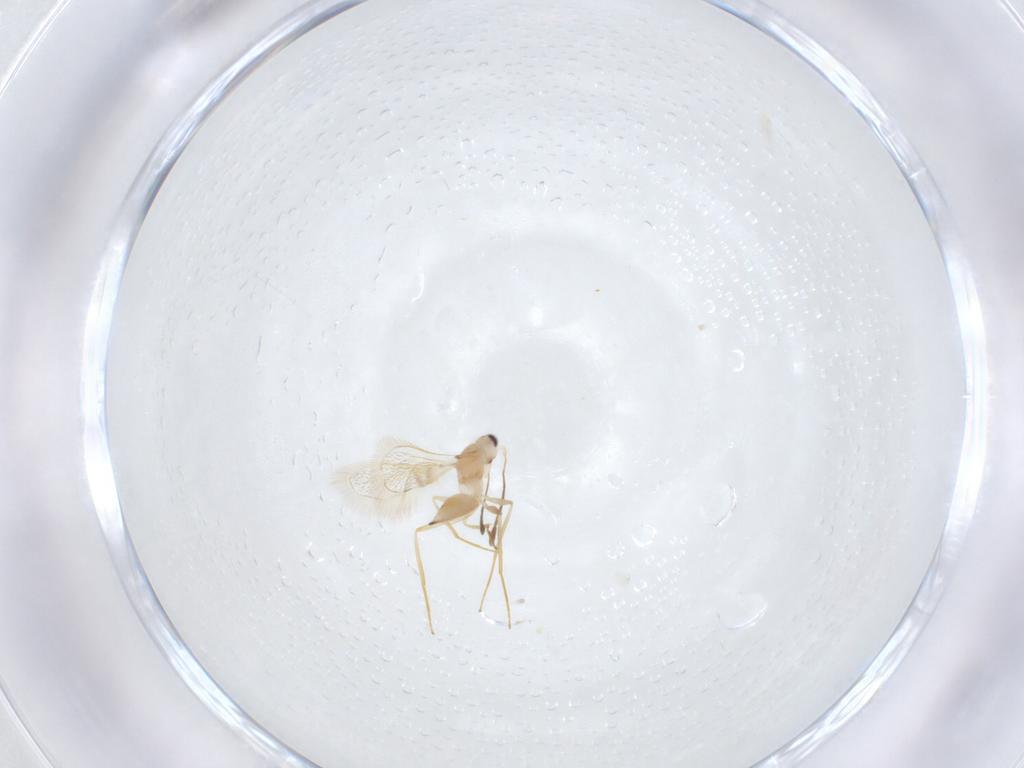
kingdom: Animalia
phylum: Arthropoda
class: Insecta
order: Hymenoptera
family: Mymaridae
